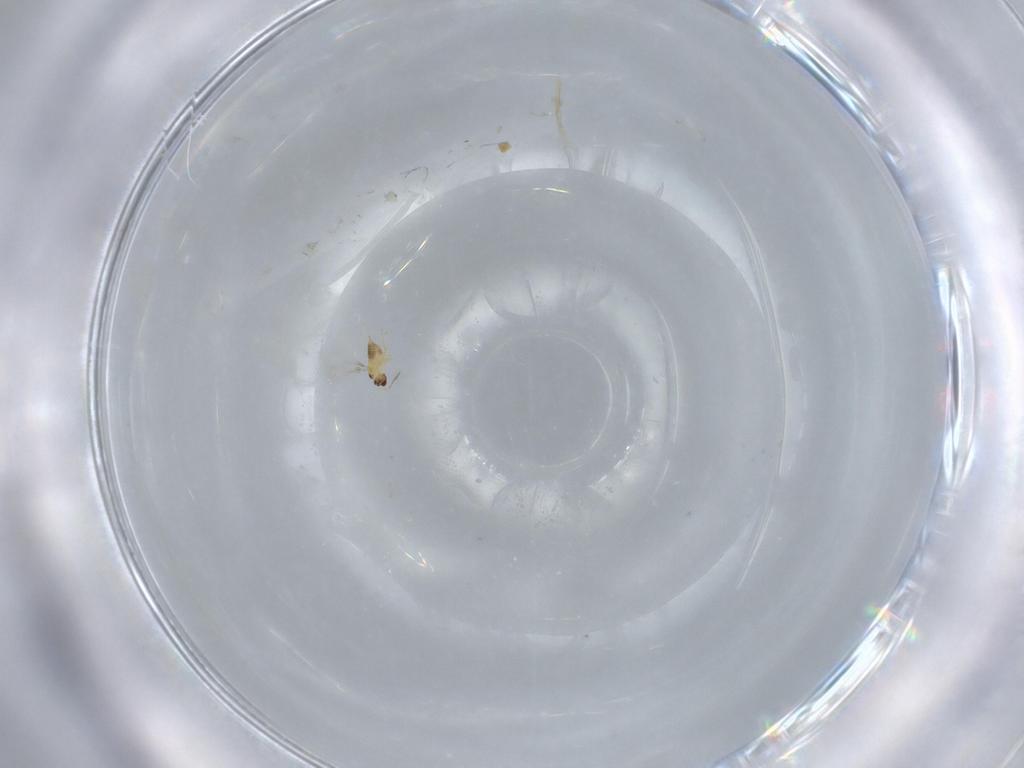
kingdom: Animalia
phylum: Arthropoda
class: Insecta
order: Hymenoptera
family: Mymaridae
